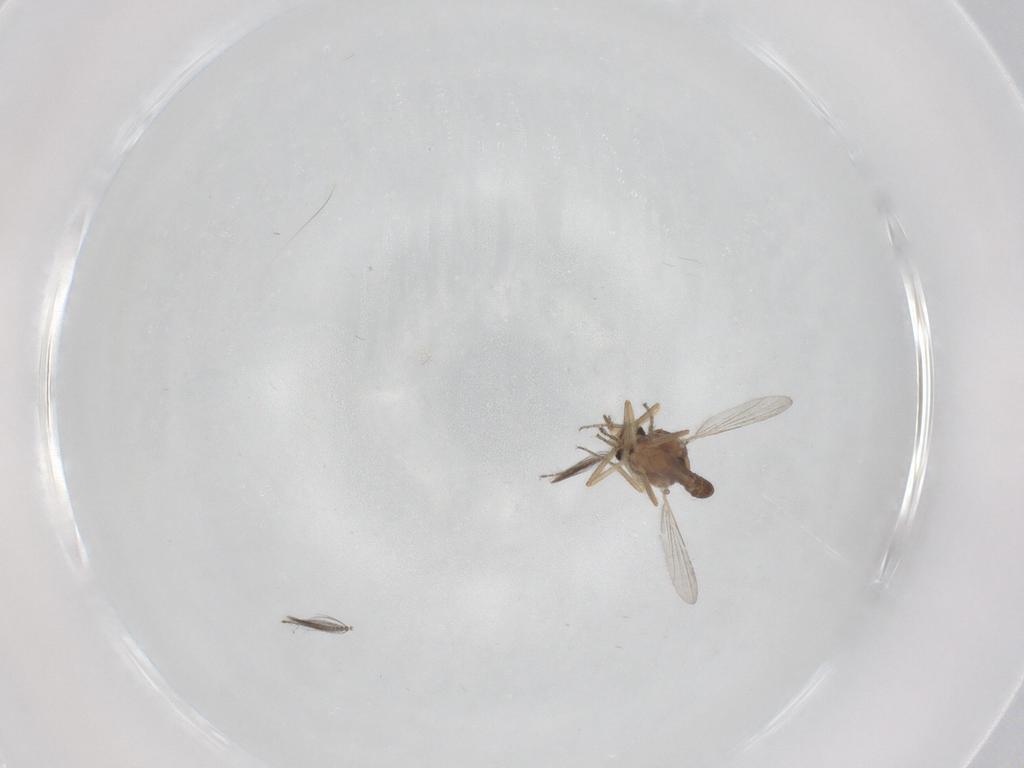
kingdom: Animalia
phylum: Arthropoda
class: Insecta
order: Diptera
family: Ceratopogonidae
